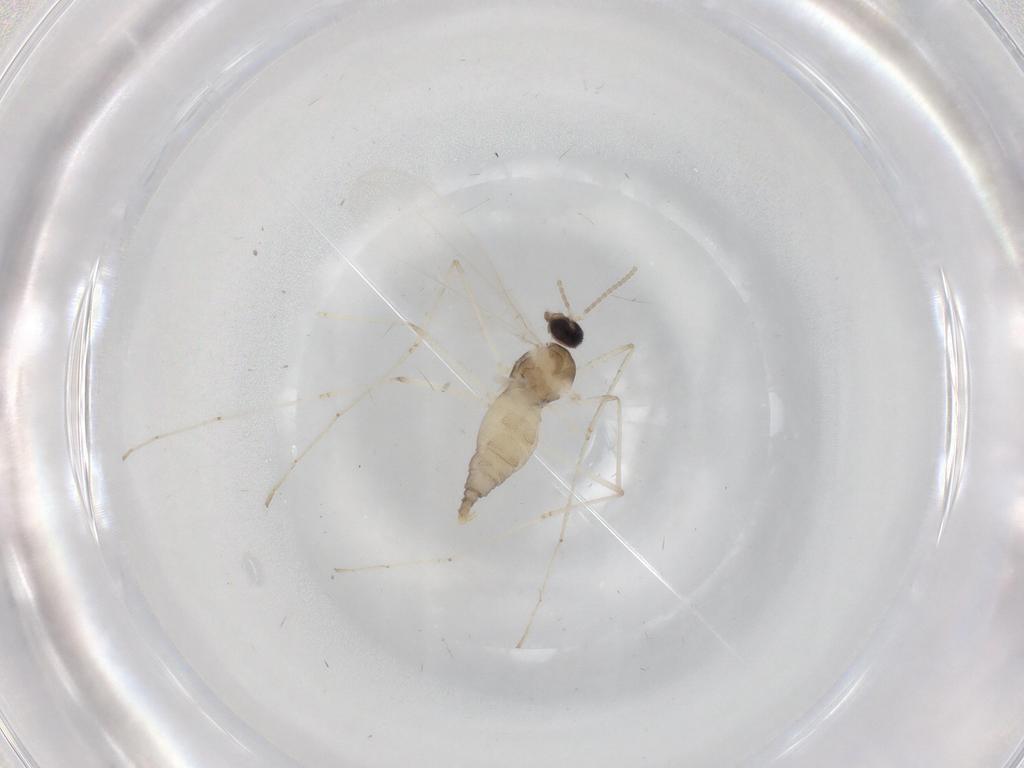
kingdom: Animalia
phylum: Arthropoda
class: Insecta
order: Diptera
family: Cecidomyiidae
